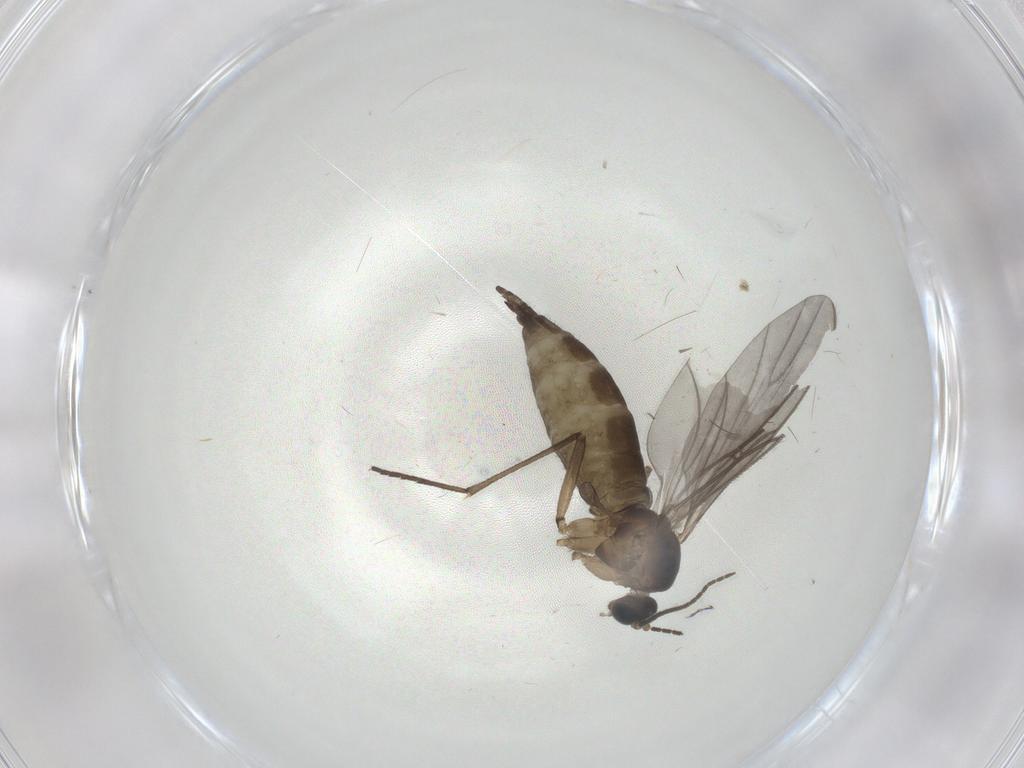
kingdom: Animalia
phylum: Arthropoda
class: Insecta
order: Diptera
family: Sciaridae
